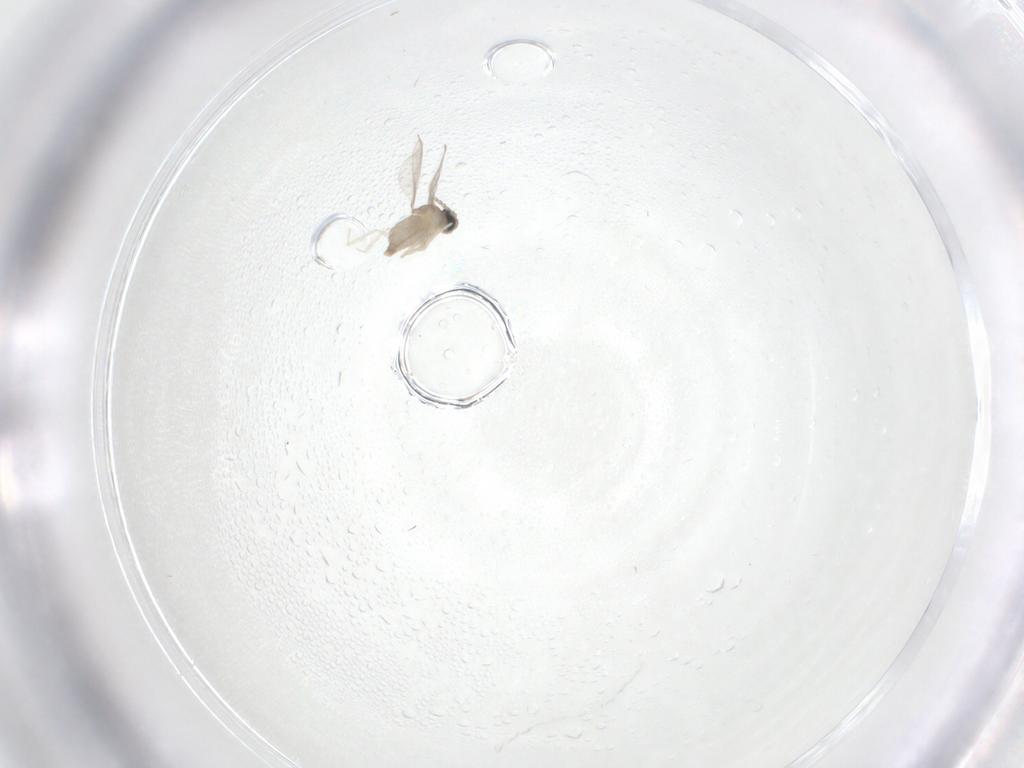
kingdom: Animalia
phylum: Arthropoda
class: Insecta
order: Diptera
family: Cecidomyiidae
